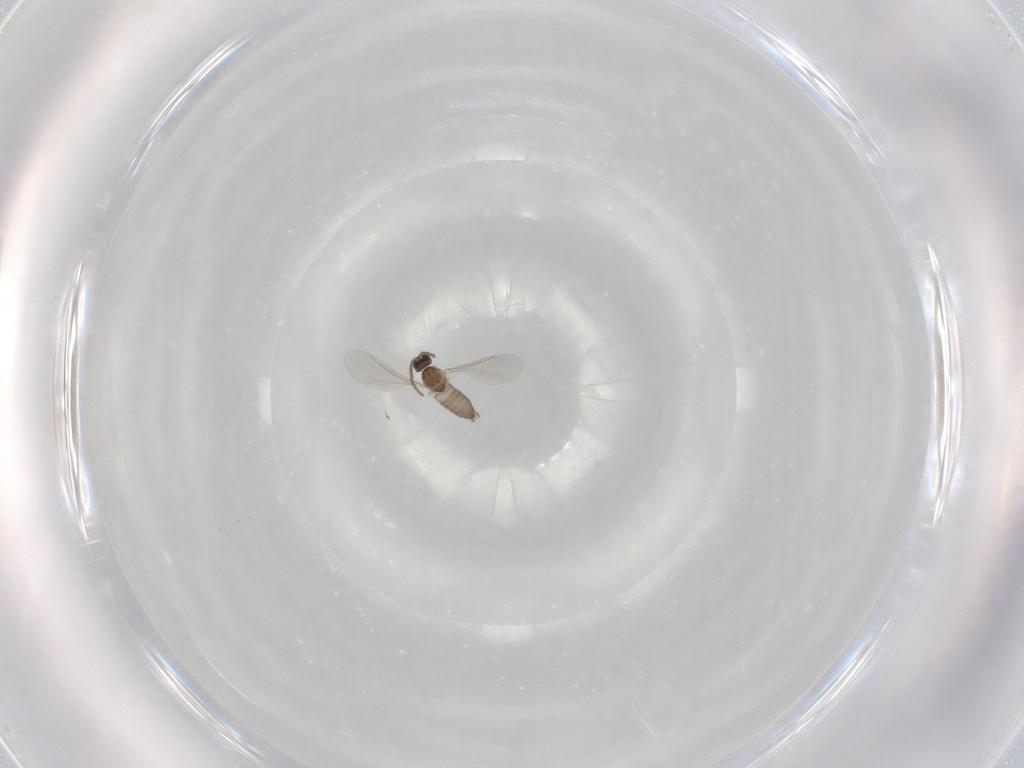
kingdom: Animalia
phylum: Arthropoda
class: Insecta
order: Diptera
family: Cecidomyiidae
